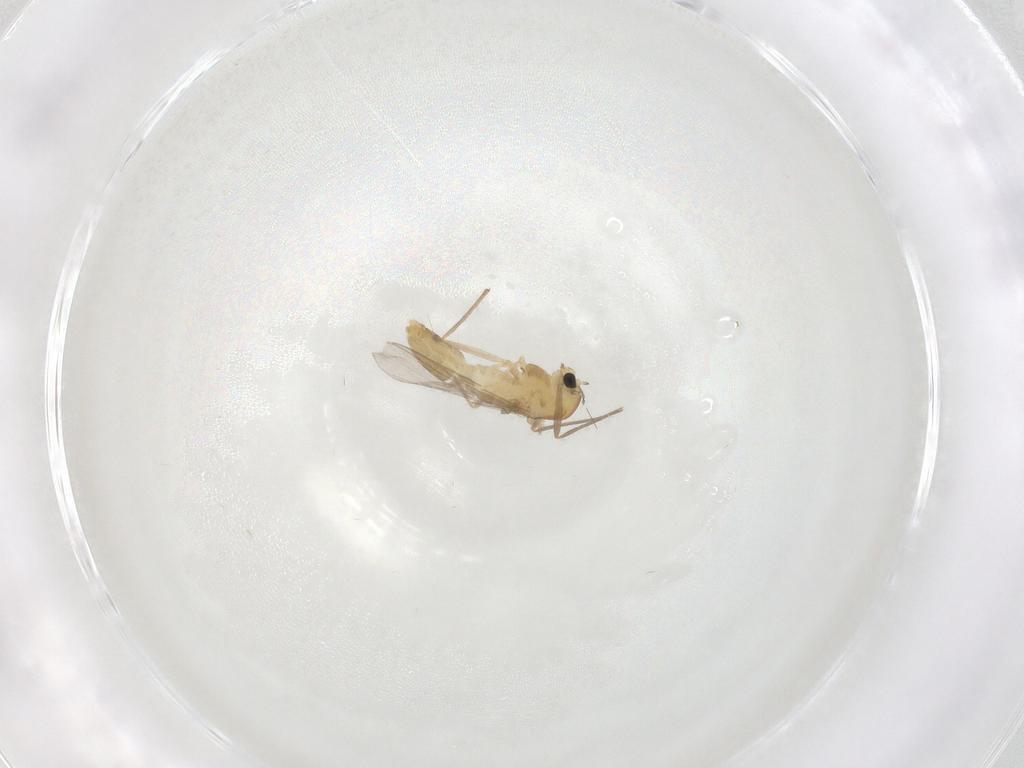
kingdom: Animalia
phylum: Arthropoda
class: Insecta
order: Diptera
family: Chironomidae
